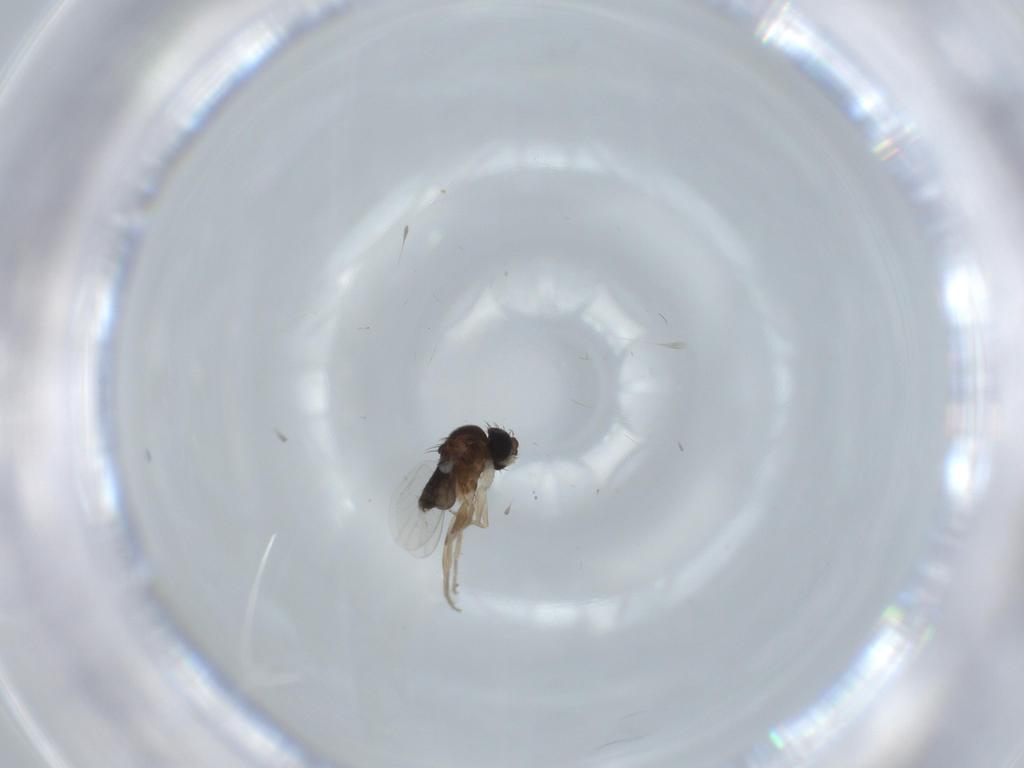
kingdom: Animalia
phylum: Arthropoda
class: Insecta
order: Diptera
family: Phoridae
